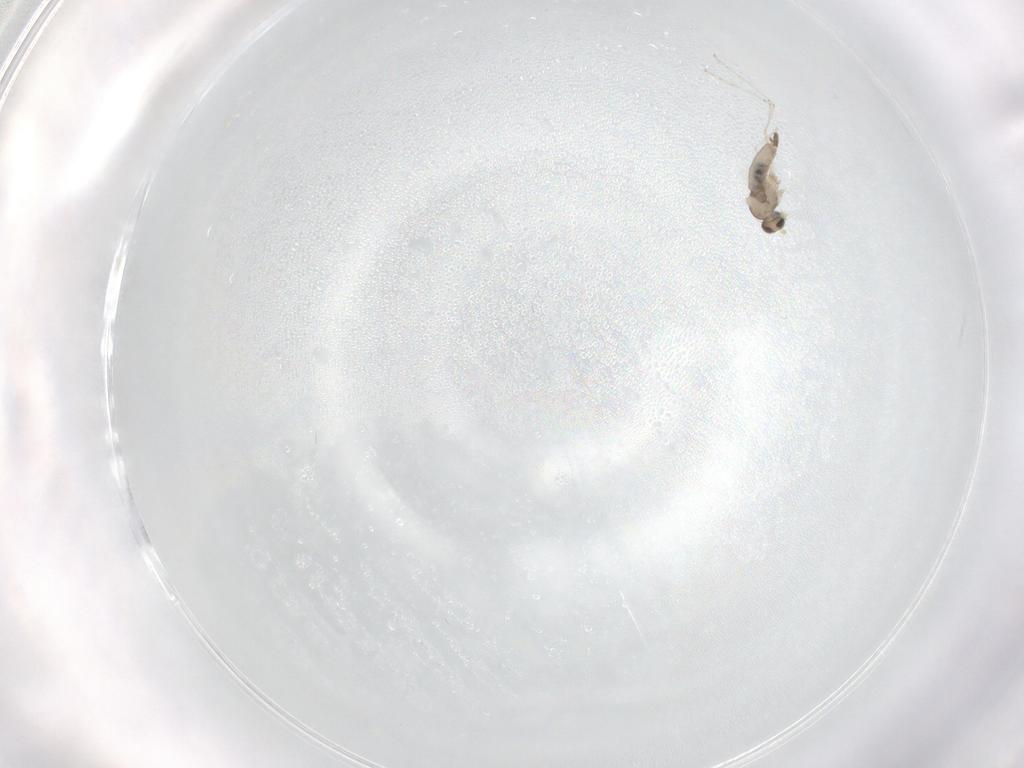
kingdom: Animalia
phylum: Arthropoda
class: Insecta
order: Diptera
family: Cecidomyiidae
